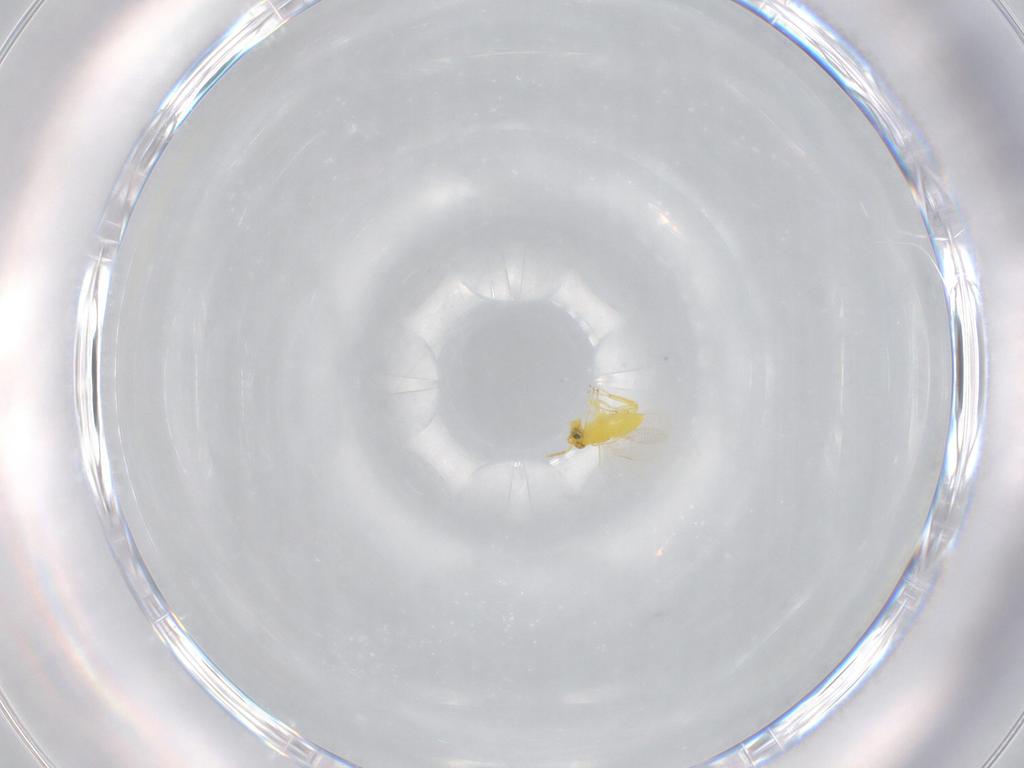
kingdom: Animalia
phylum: Arthropoda
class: Insecta
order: Hymenoptera
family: Scelionidae
